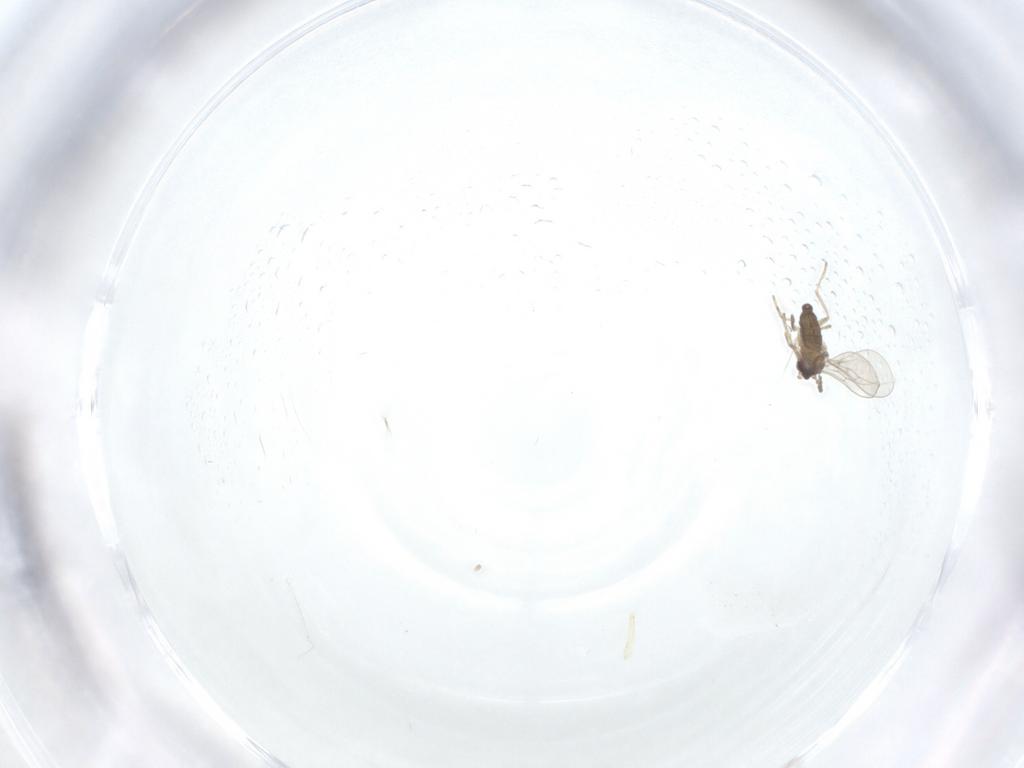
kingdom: Animalia
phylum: Arthropoda
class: Insecta
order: Diptera
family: Cecidomyiidae
